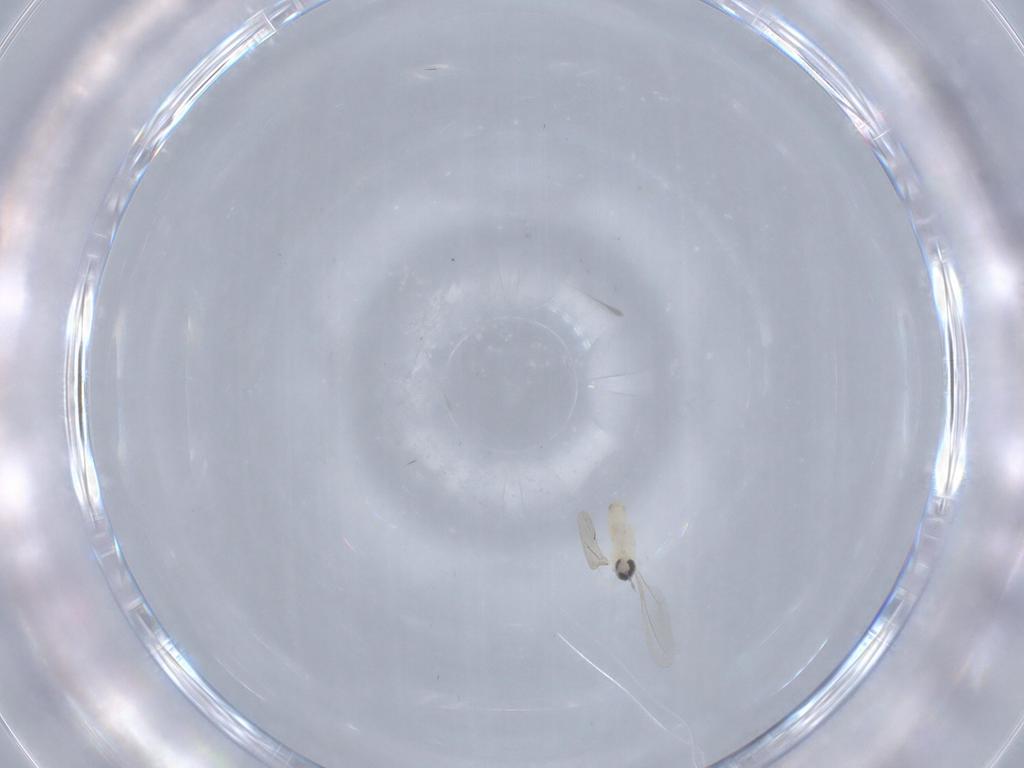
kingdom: Animalia
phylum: Arthropoda
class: Insecta
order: Diptera
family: Cecidomyiidae
